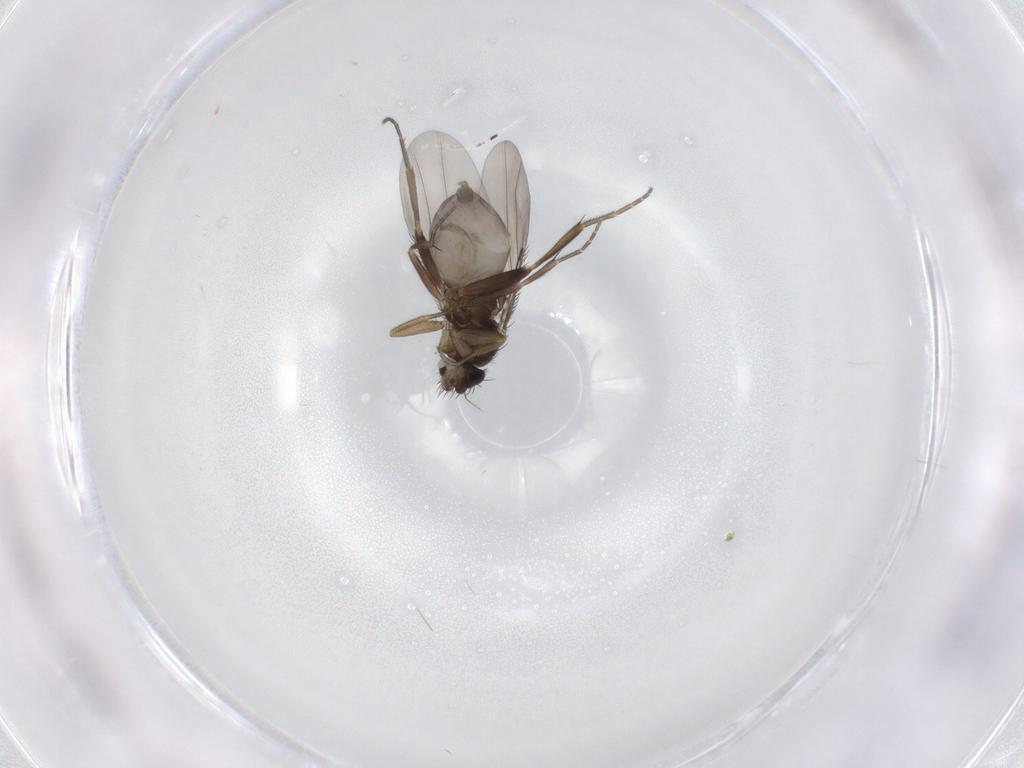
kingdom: Animalia
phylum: Arthropoda
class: Insecta
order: Diptera
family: Phoridae
